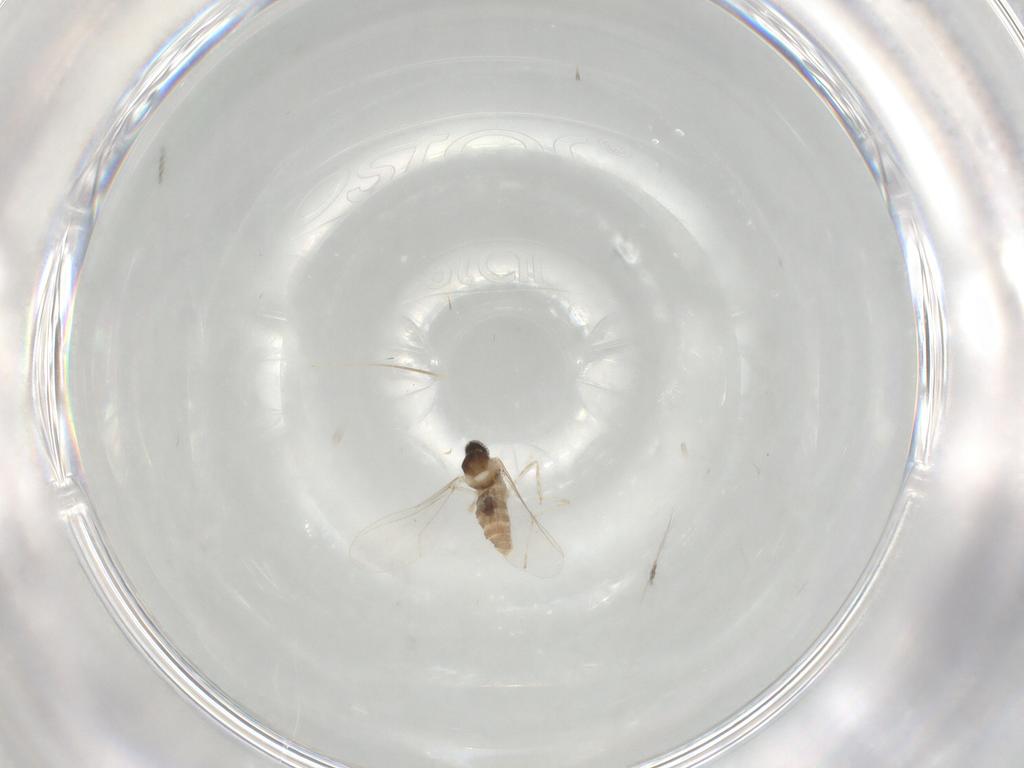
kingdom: Animalia
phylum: Arthropoda
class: Insecta
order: Diptera
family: Cecidomyiidae
